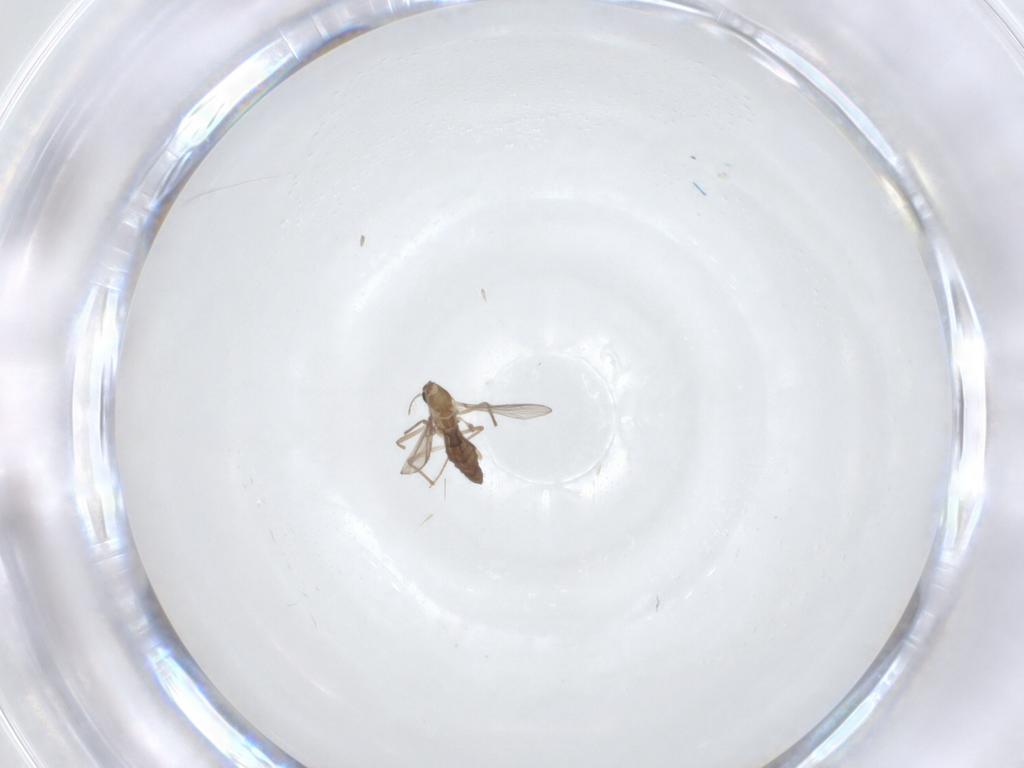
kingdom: Animalia
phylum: Arthropoda
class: Insecta
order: Diptera
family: Chironomidae
